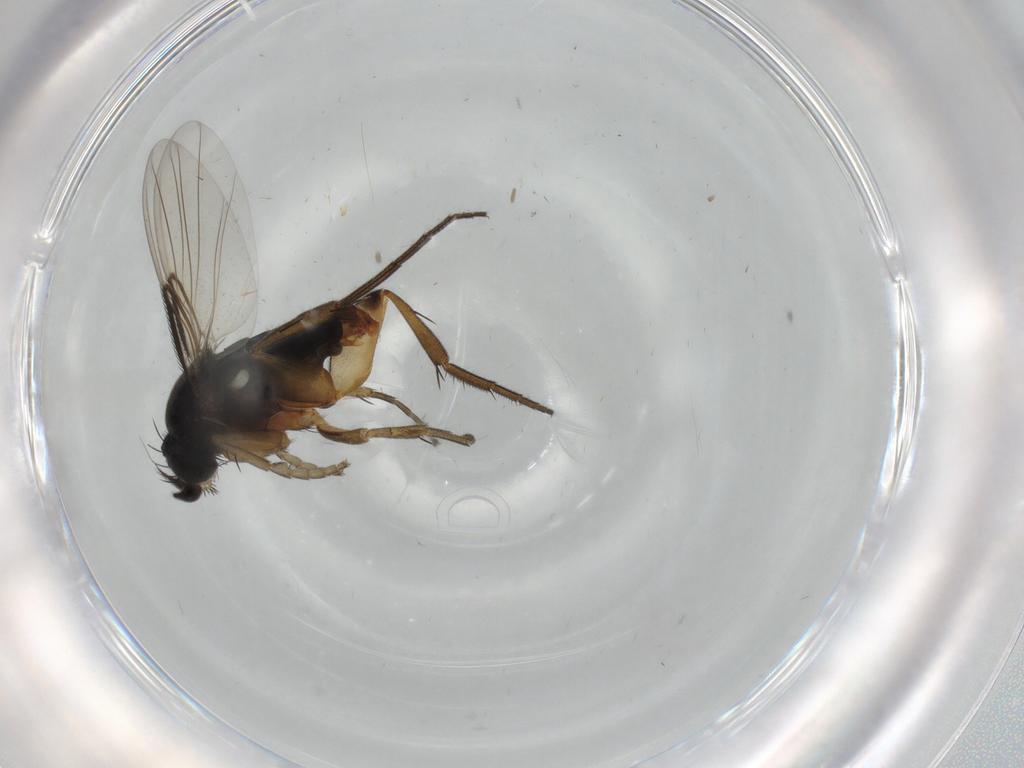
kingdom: Animalia
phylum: Arthropoda
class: Insecta
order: Diptera
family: Phoridae
